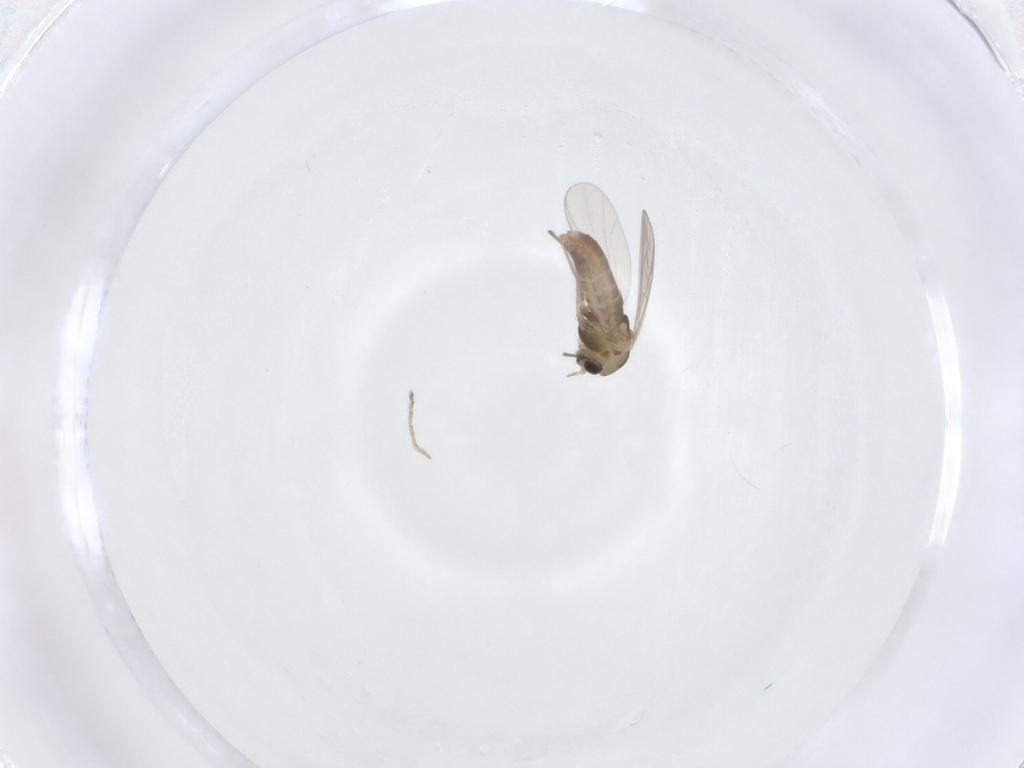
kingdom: Animalia
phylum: Arthropoda
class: Insecta
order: Diptera
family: Chironomidae
